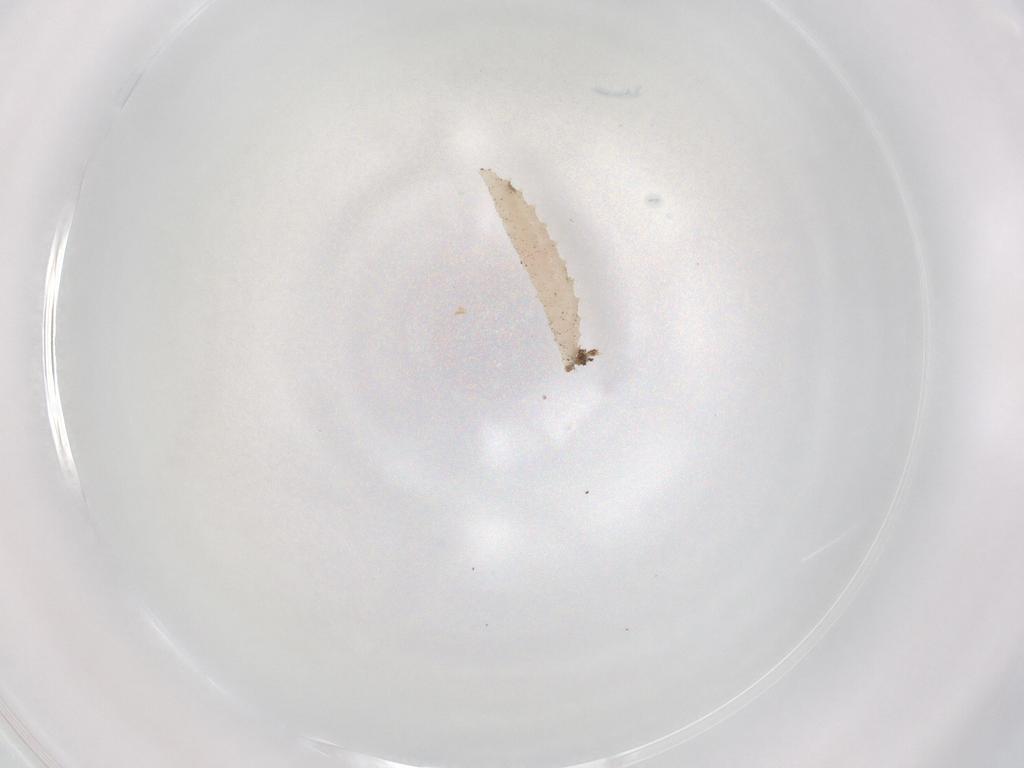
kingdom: Animalia
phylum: Arthropoda
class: Insecta
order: Diptera
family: Cecidomyiidae
